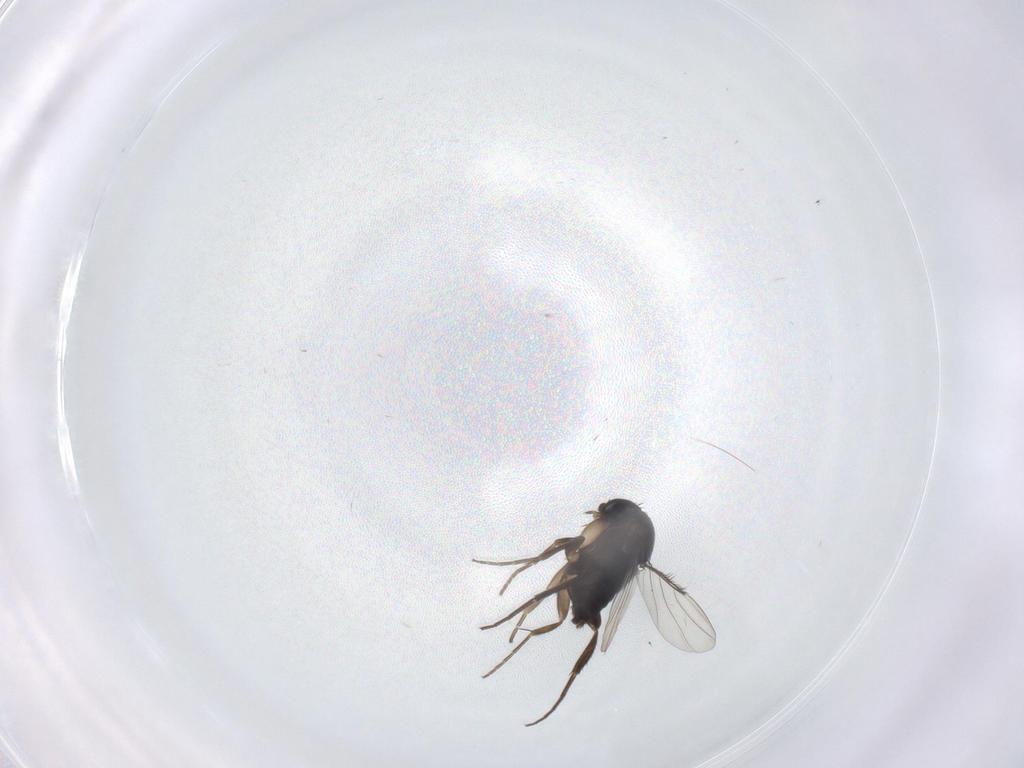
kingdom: Animalia
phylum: Arthropoda
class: Insecta
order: Diptera
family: Phoridae
